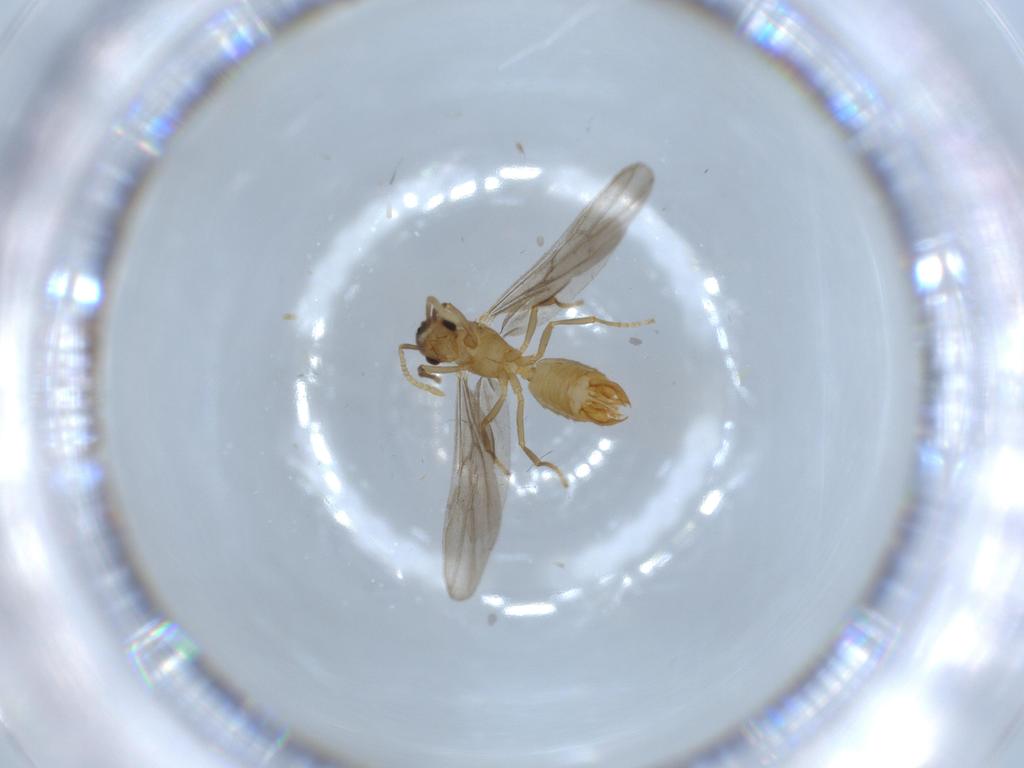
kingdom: Animalia
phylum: Arthropoda
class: Insecta
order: Hymenoptera
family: Formicidae
